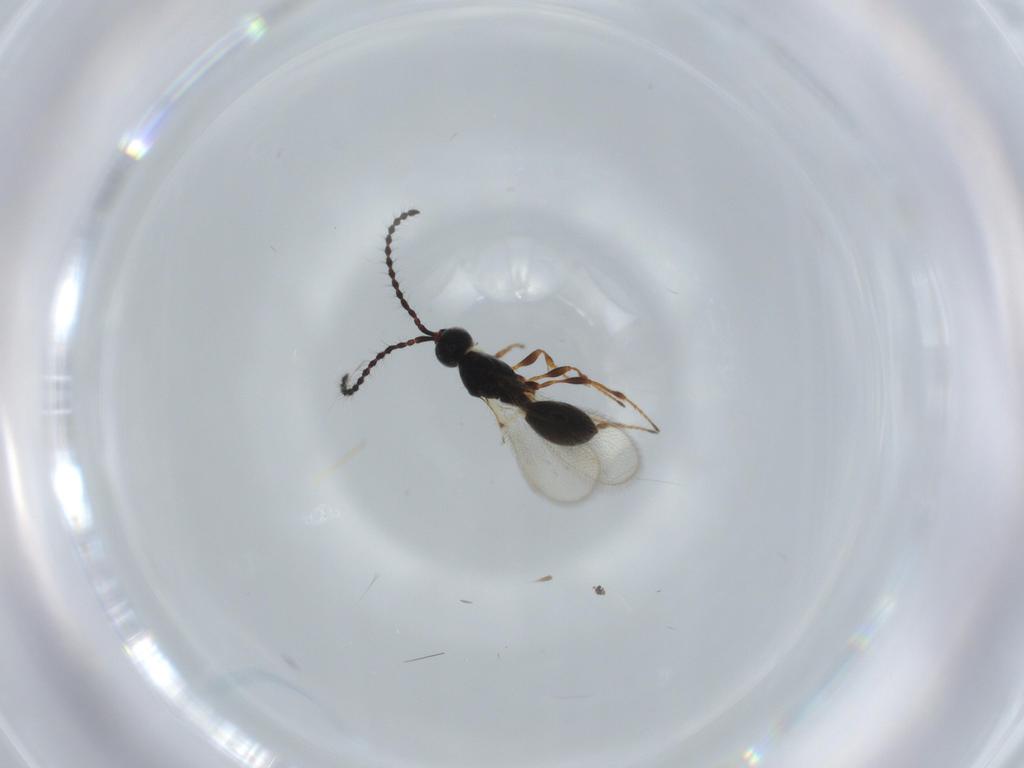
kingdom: Animalia
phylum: Arthropoda
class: Insecta
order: Hymenoptera
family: Diapriidae
